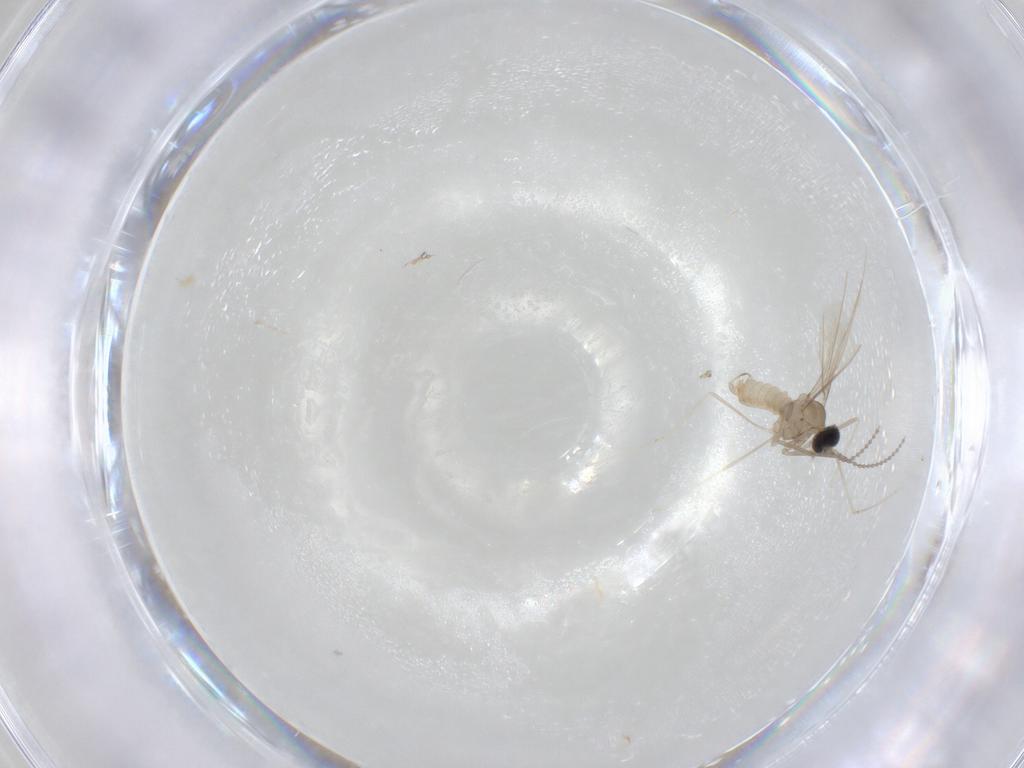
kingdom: Animalia
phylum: Arthropoda
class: Insecta
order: Diptera
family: Cecidomyiidae
